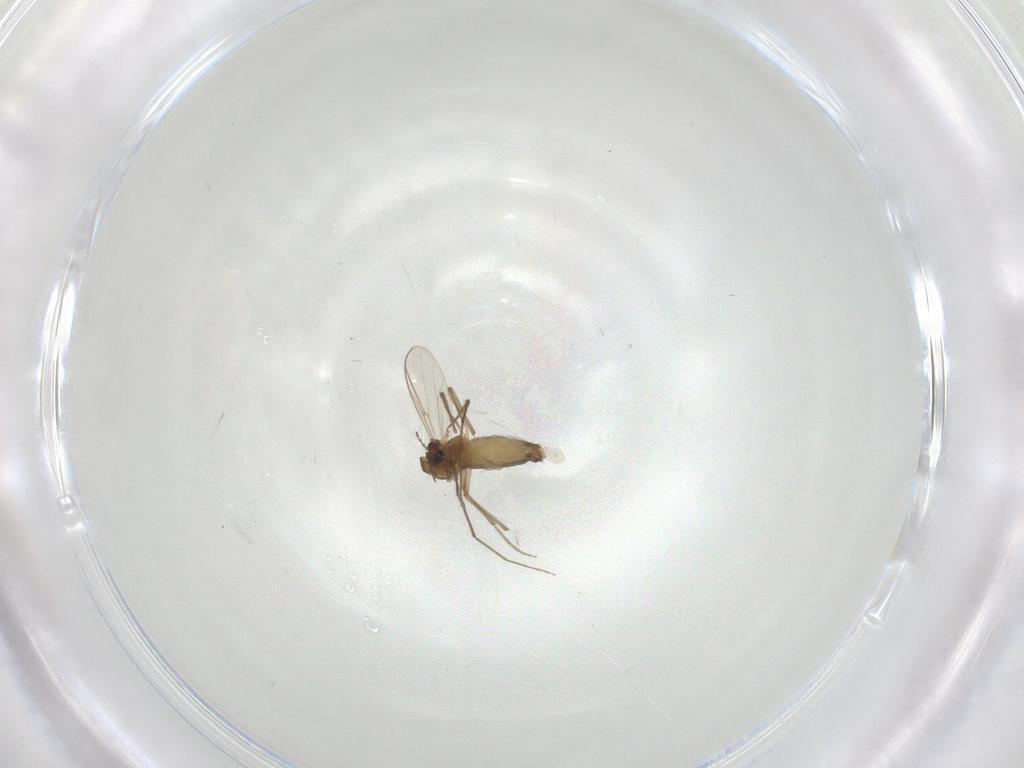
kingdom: Animalia
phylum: Arthropoda
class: Insecta
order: Diptera
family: Chironomidae
